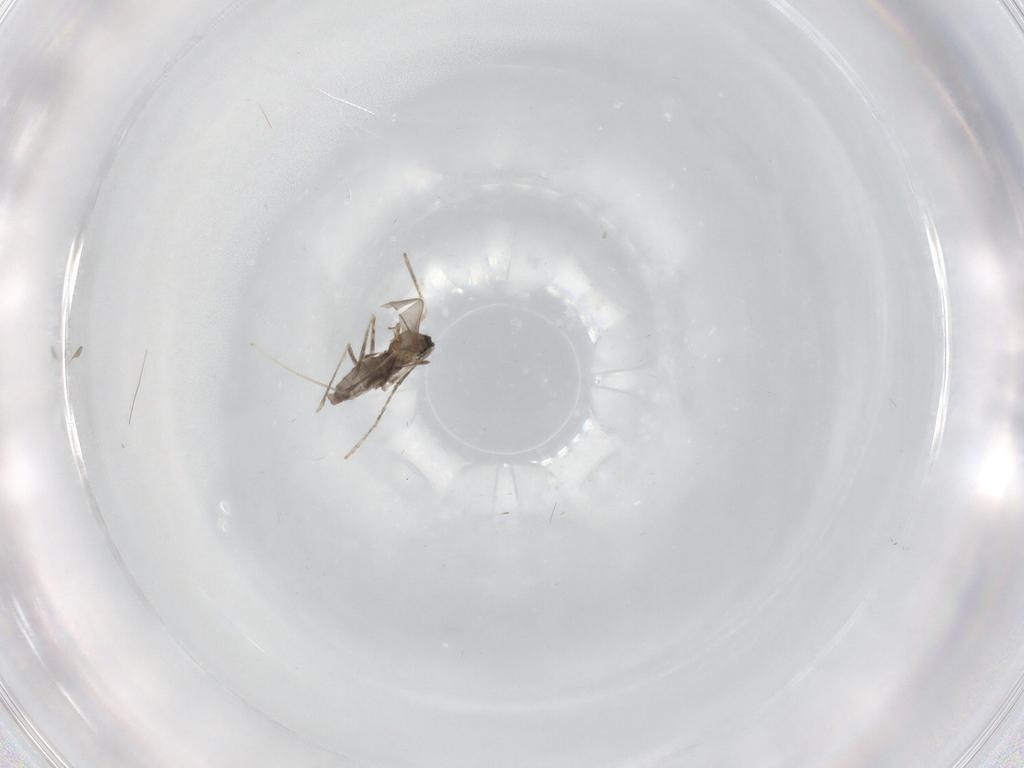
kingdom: Animalia
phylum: Arthropoda
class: Insecta
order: Diptera
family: Cecidomyiidae
